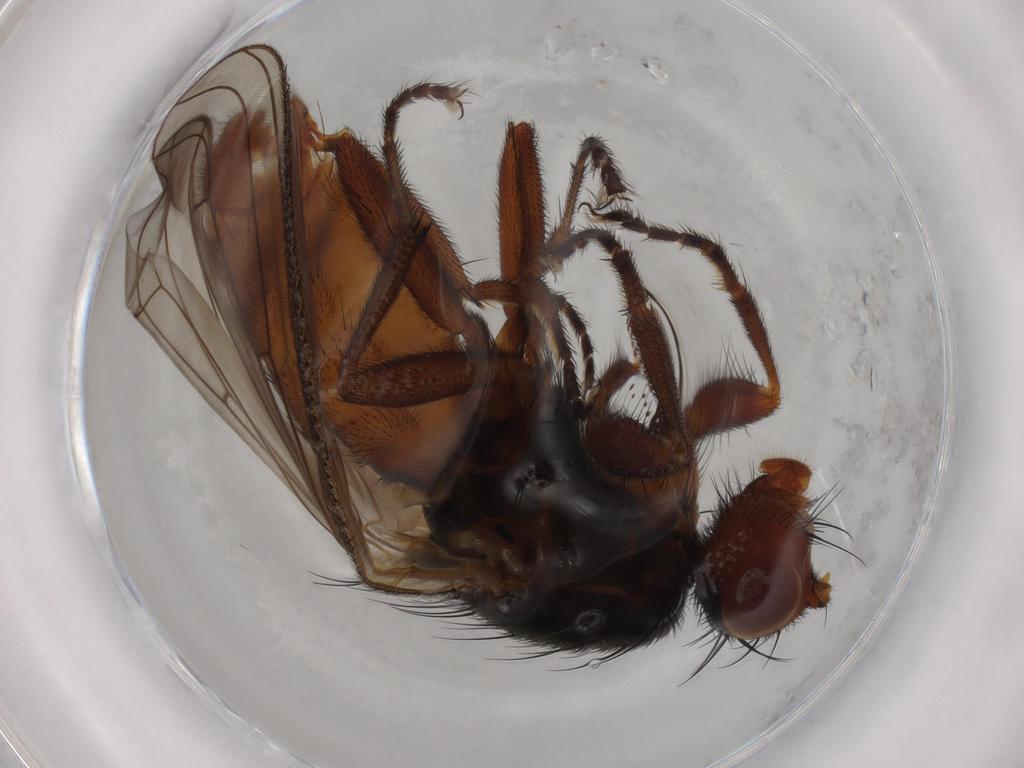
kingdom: Animalia
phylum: Arthropoda
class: Insecta
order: Diptera
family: Heleomyzidae
